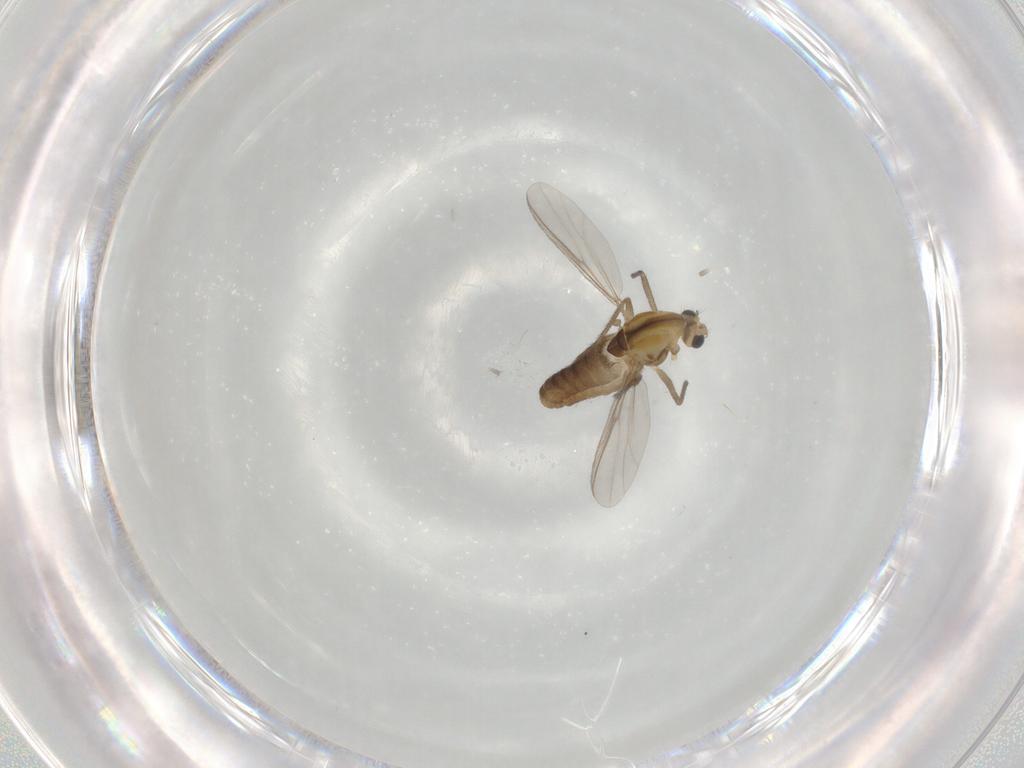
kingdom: Animalia
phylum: Arthropoda
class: Insecta
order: Diptera
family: Chironomidae
